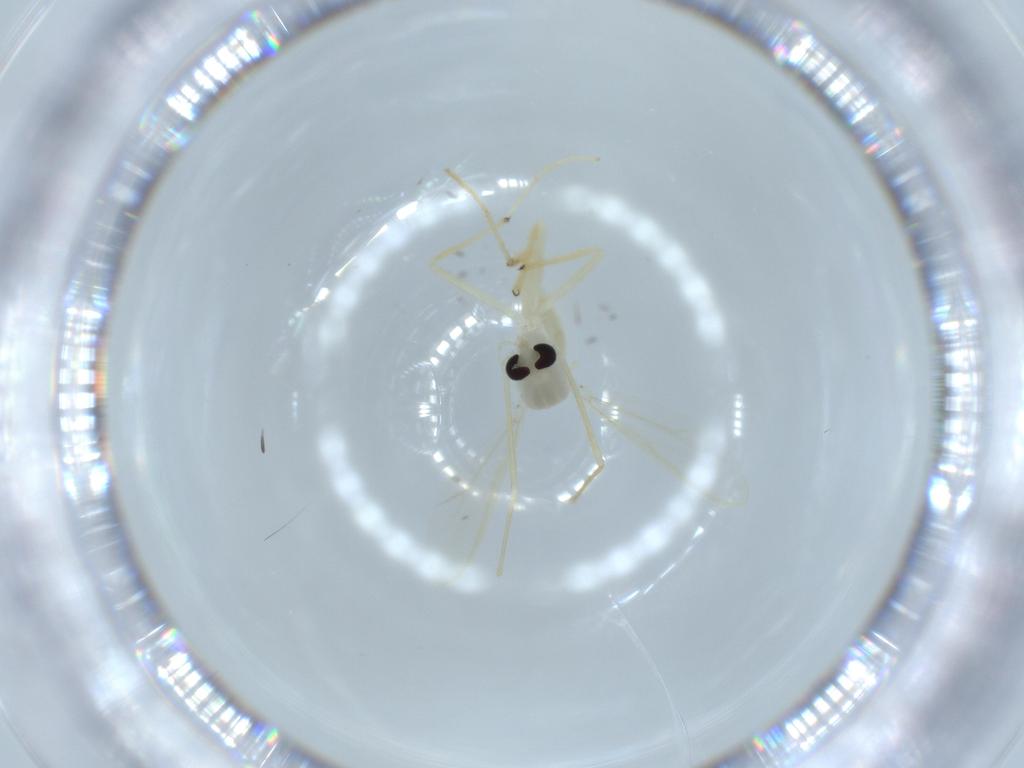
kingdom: Animalia
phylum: Arthropoda
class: Insecta
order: Diptera
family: Chironomidae
